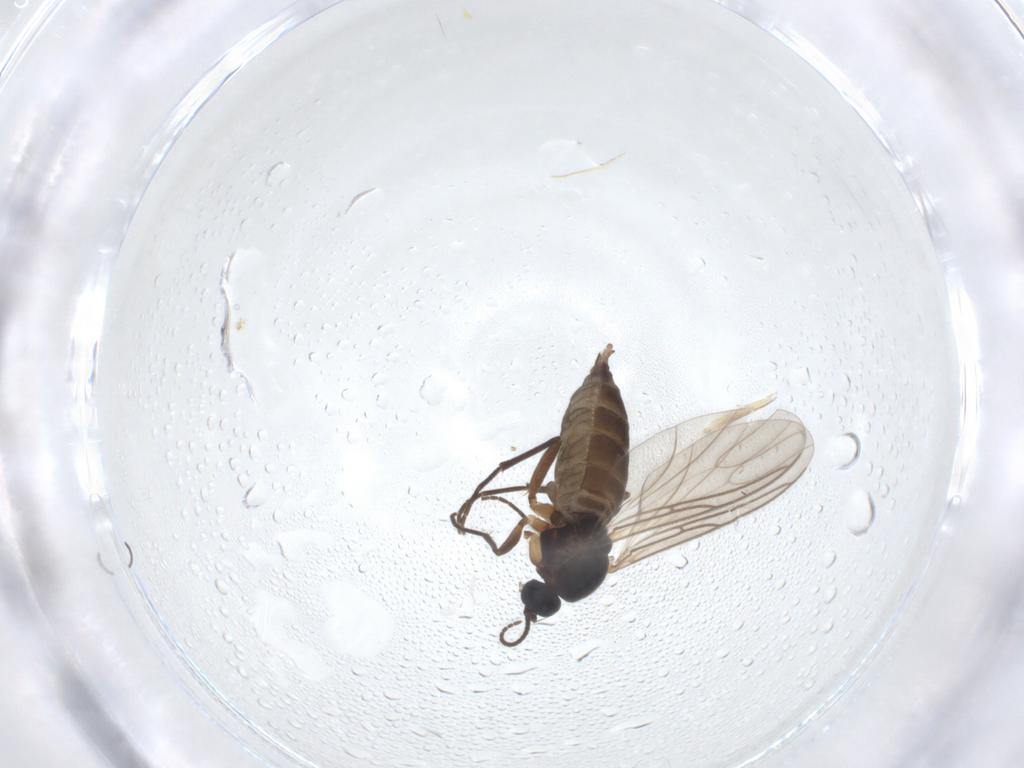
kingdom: Animalia
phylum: Arthropoda
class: Insecta
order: Diptera
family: Sciaridae
